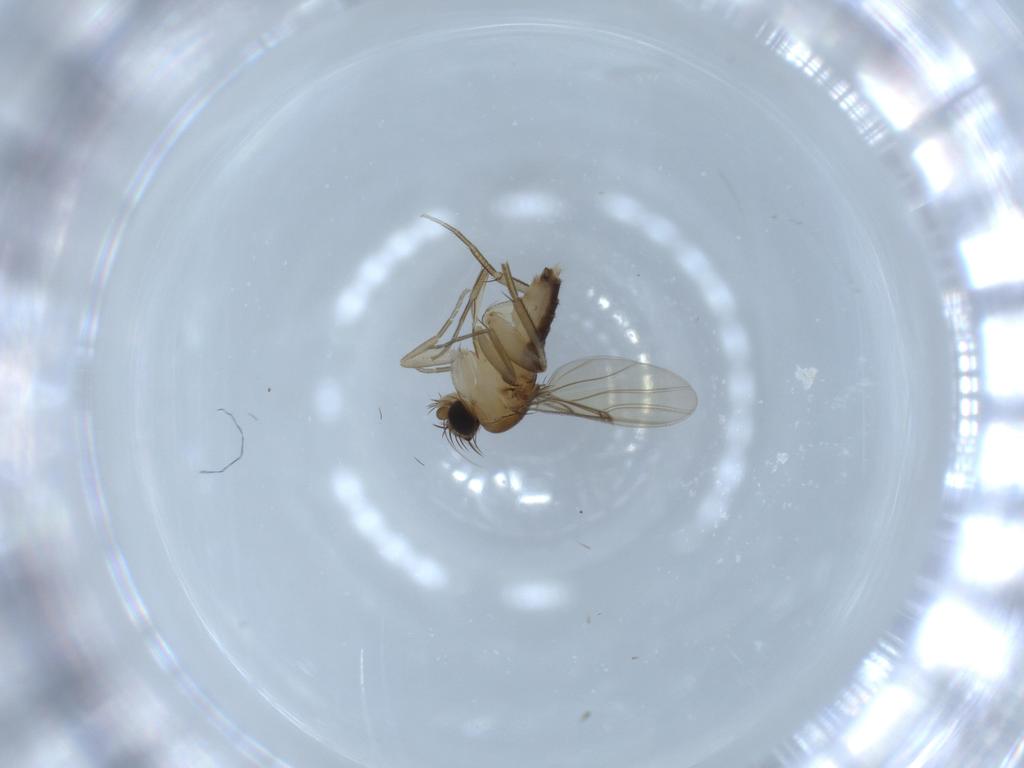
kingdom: Animalia
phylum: Arthropoda
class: Insecta
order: Diptera
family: Phoridae
